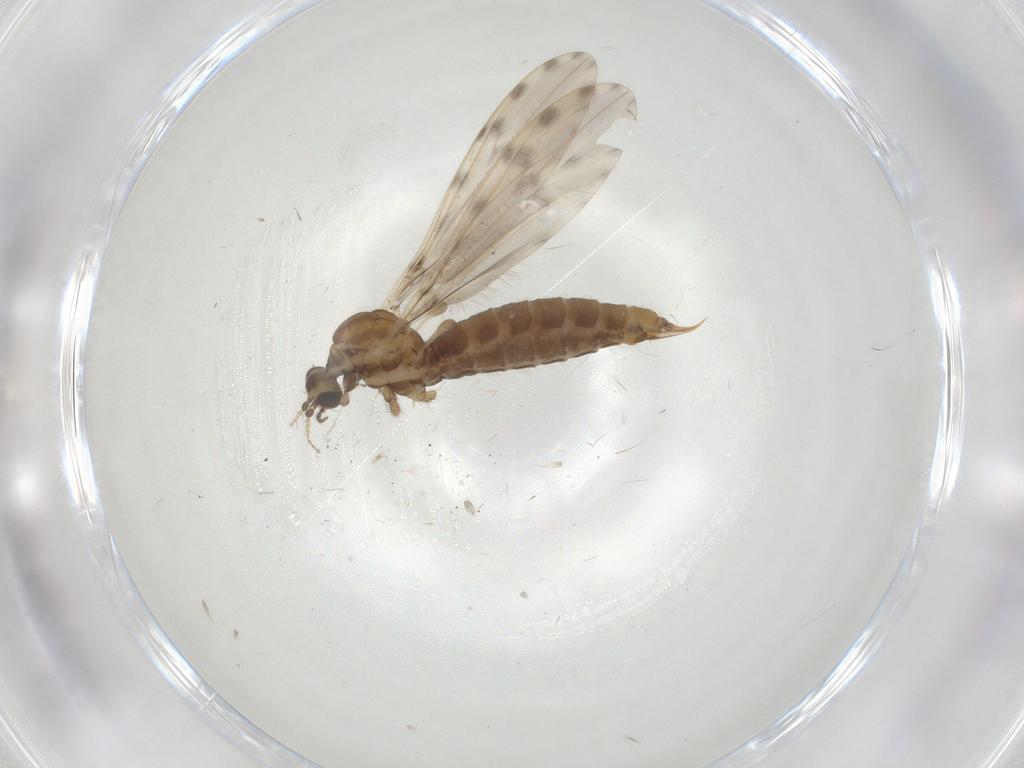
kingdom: Animalia
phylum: Arthropoda
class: Insecta
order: Diptera
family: Limoniidae
